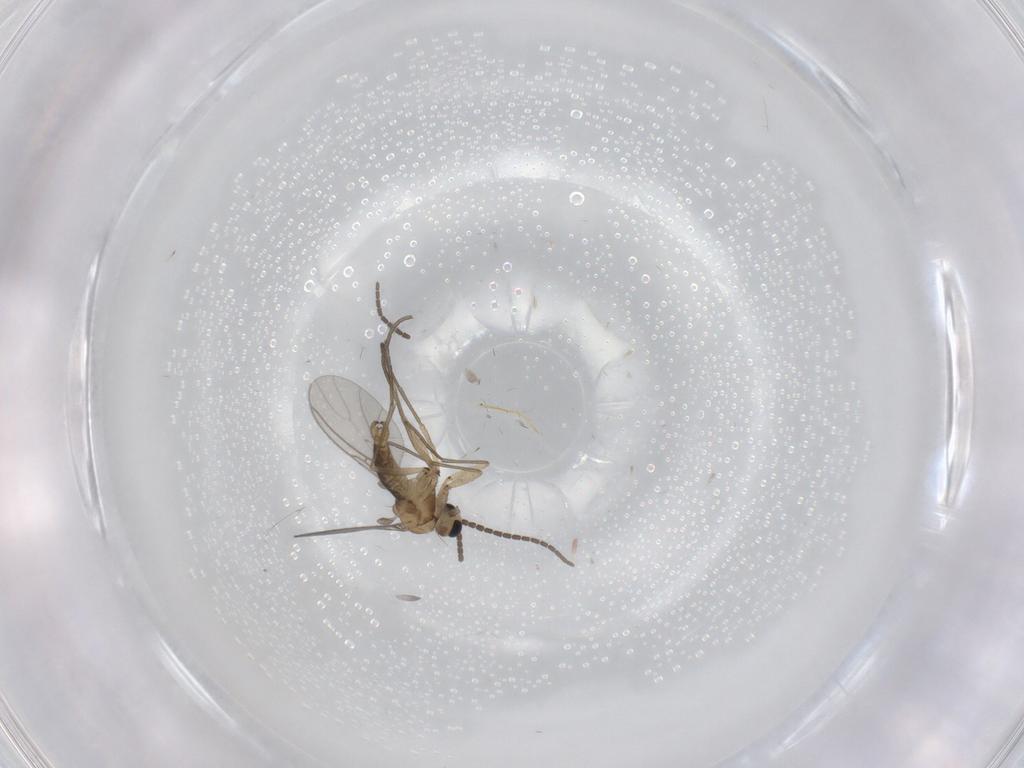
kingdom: Animalia
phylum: Arthropoda
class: Insecta
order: Diptera
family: Sciaridae
